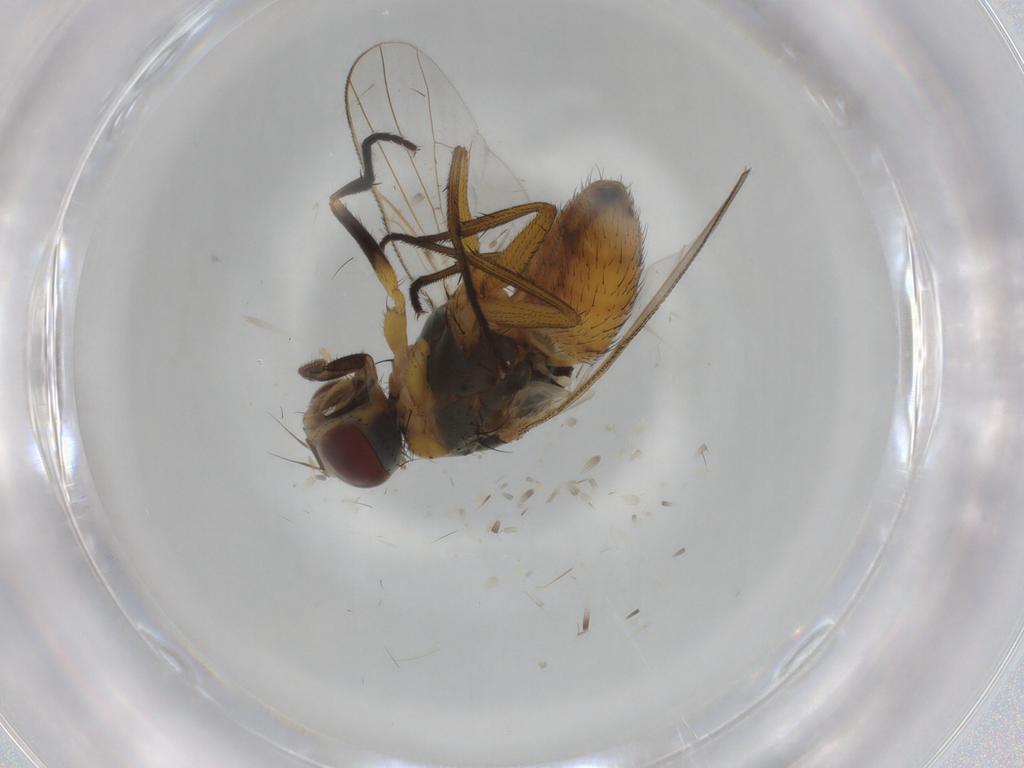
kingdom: Animalia
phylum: Arthropoda
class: Insecta
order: Diptera
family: Muscidae
